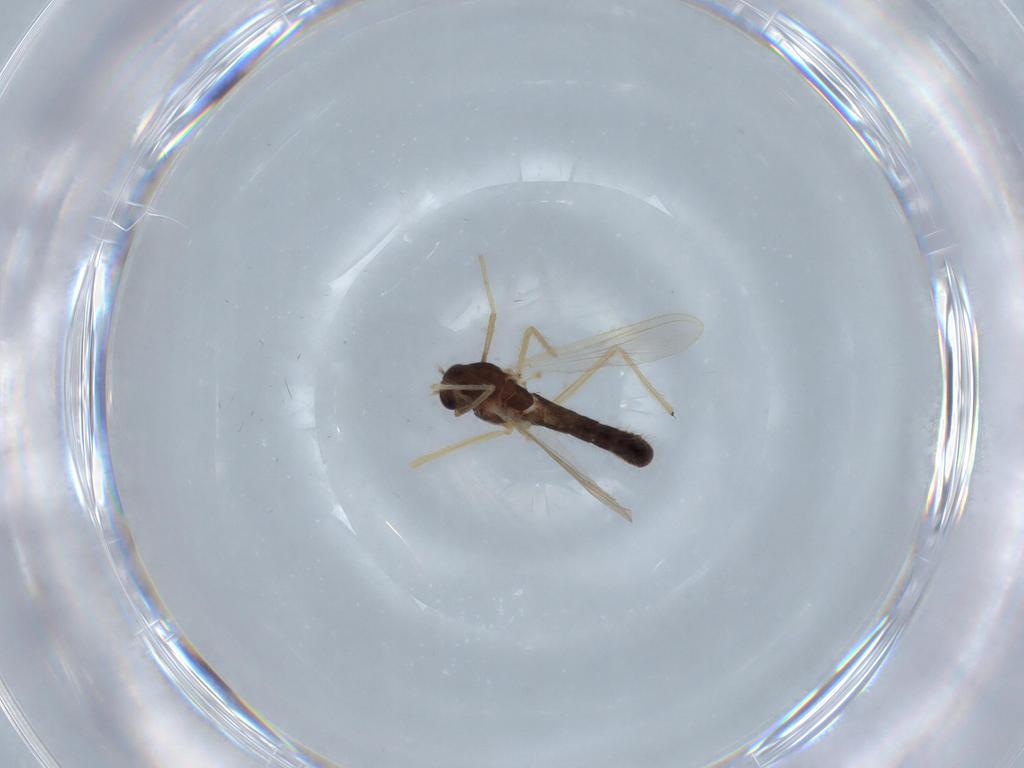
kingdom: Animalia
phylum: Arthropoda
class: Insecta
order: Diptera
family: Chironomidae
